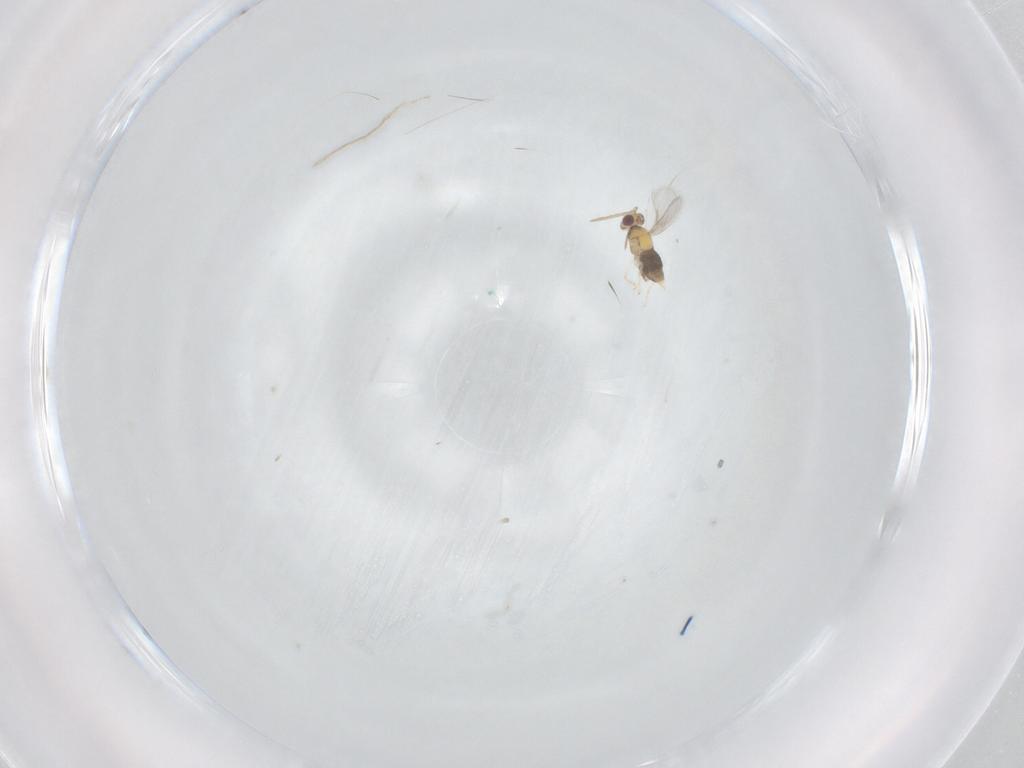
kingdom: Animalia
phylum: Arthropoda
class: Insecta
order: Hymenoptera
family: Aphelinidae
